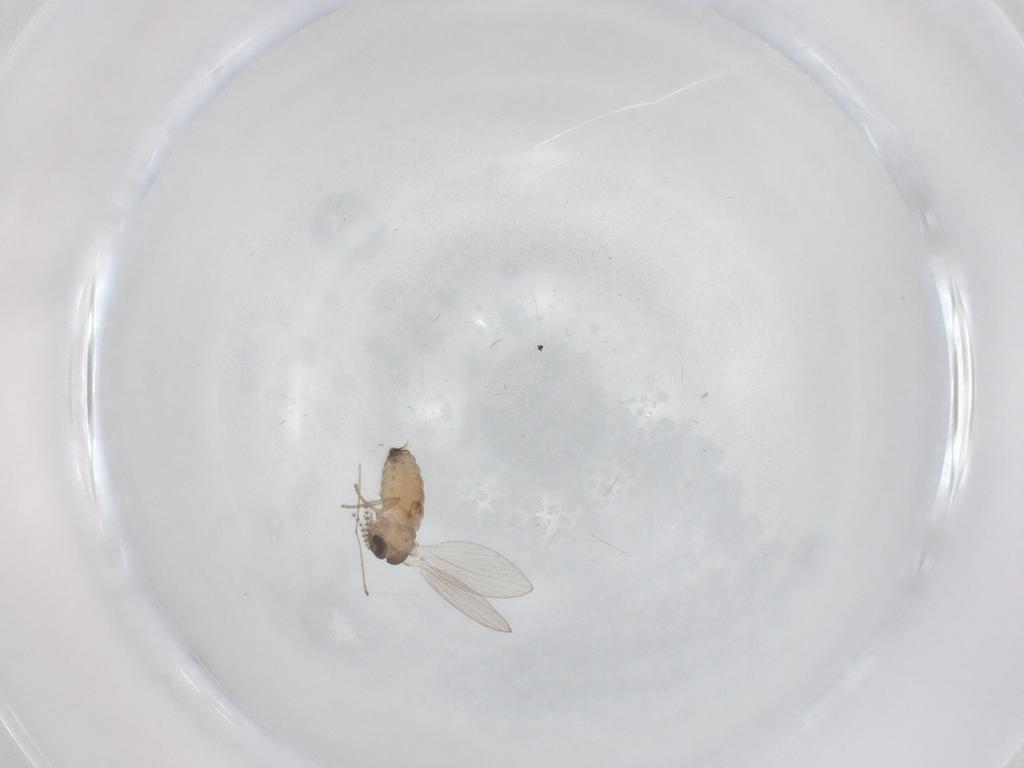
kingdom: Animalia
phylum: Arthropoda
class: Insecta
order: Diptera
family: Psychodidae
